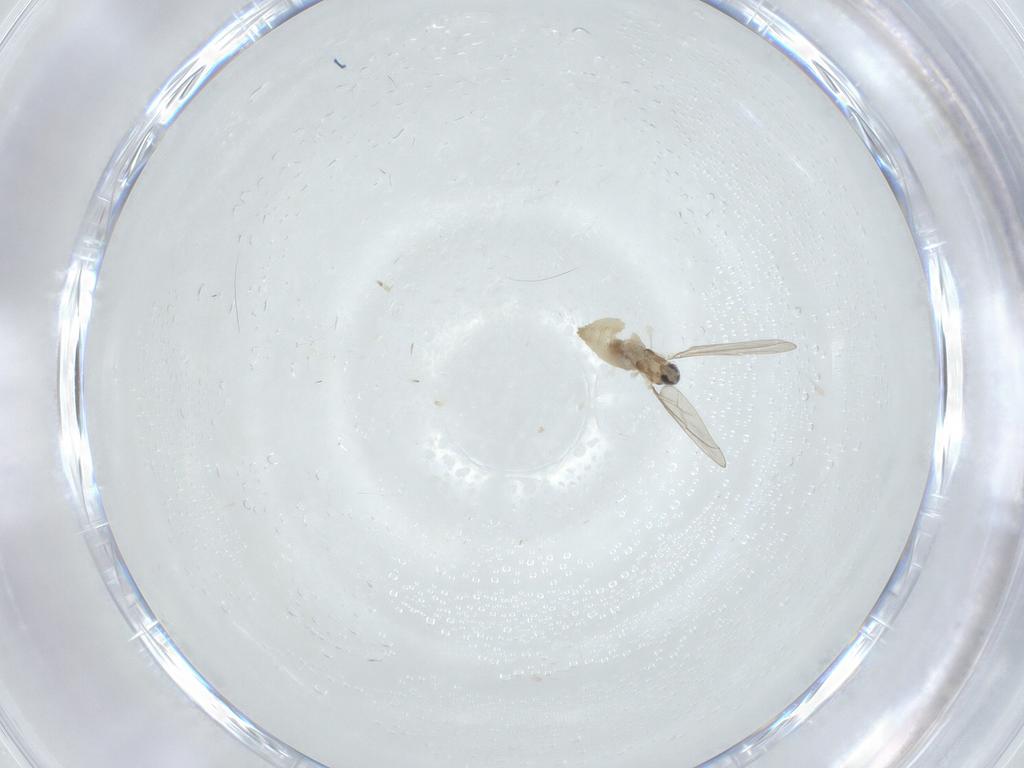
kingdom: Animalia
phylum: Arthropoda
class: Insecta
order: Diptera
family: Cecidomyiidae
